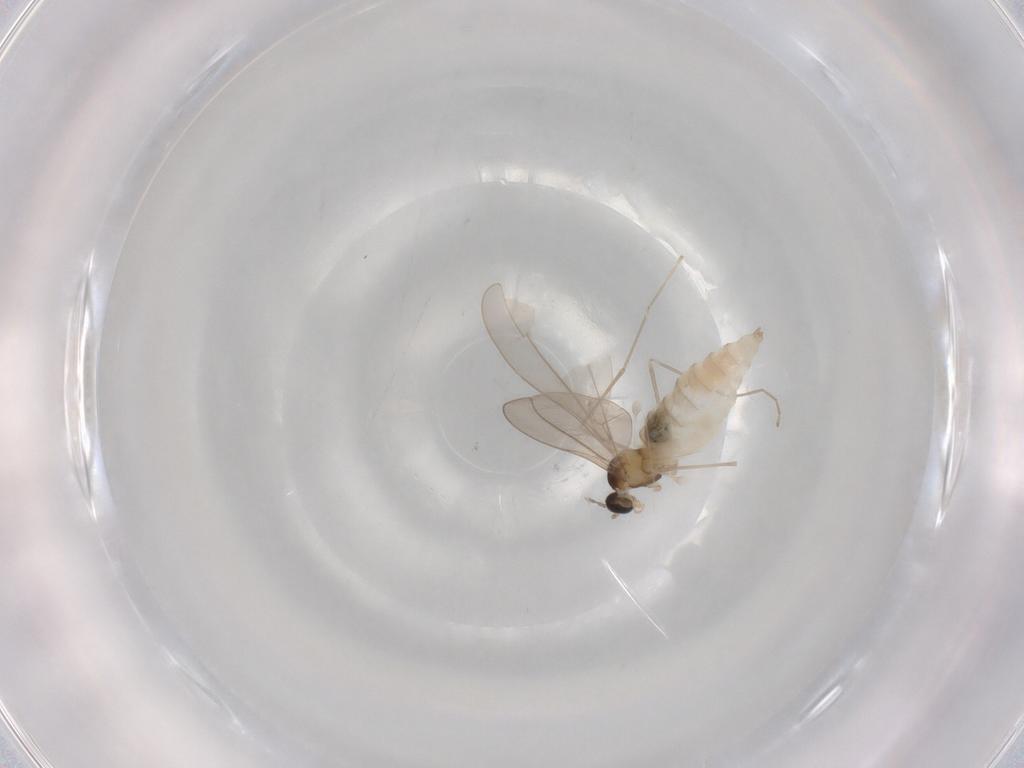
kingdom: Animalia
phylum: Arthropoda
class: Insecta
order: Diptera
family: Cecidomyiidae
